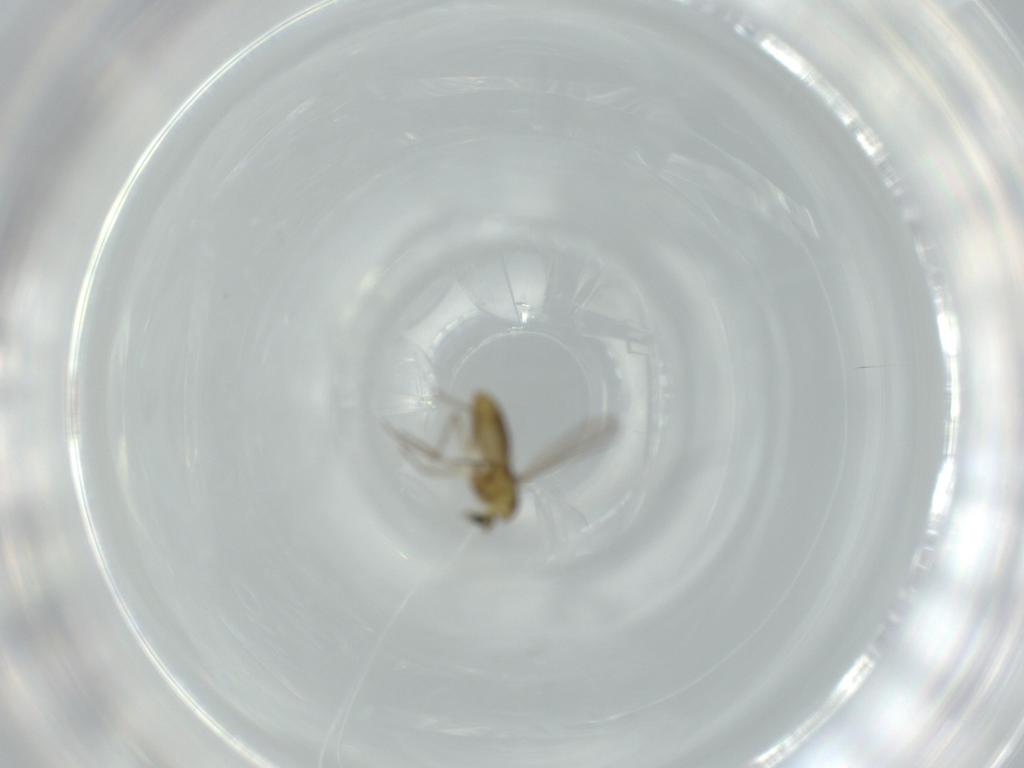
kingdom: Animalia
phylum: Arthropoda
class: Insecta
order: Diptera
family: Chironomidae
